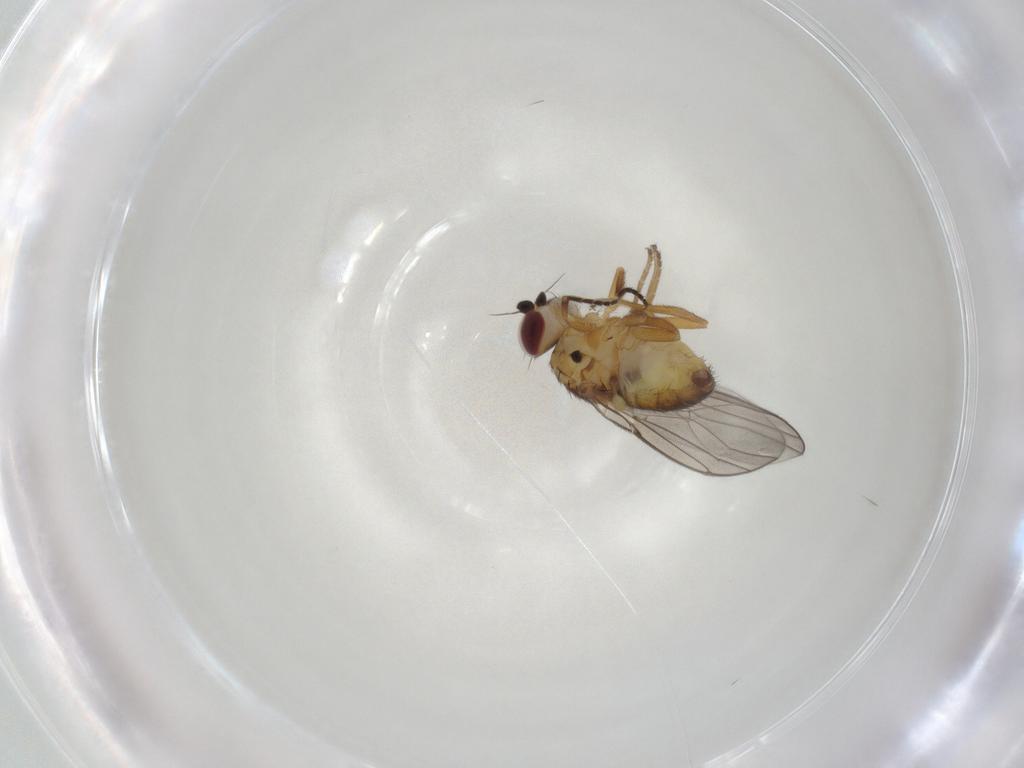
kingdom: Animalia
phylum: Arthropoda
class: Insecta
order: Diptera
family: Chloropidae
